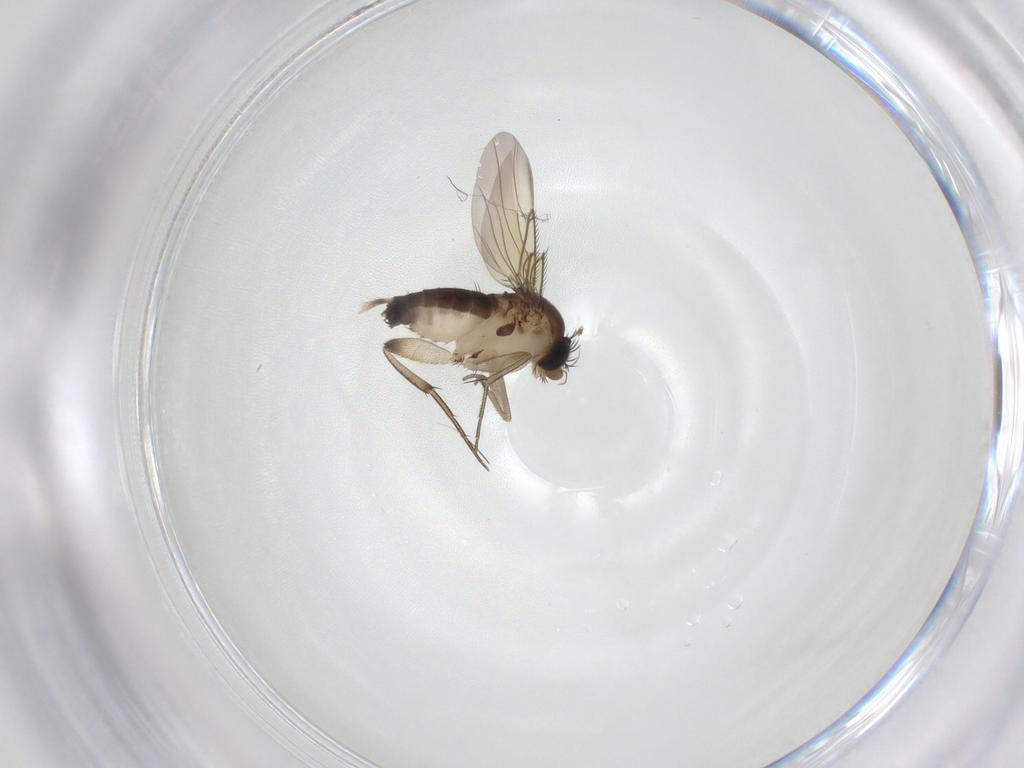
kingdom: Animalia
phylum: Arthropoda
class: Insecta
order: Diptera
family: Phoridae
